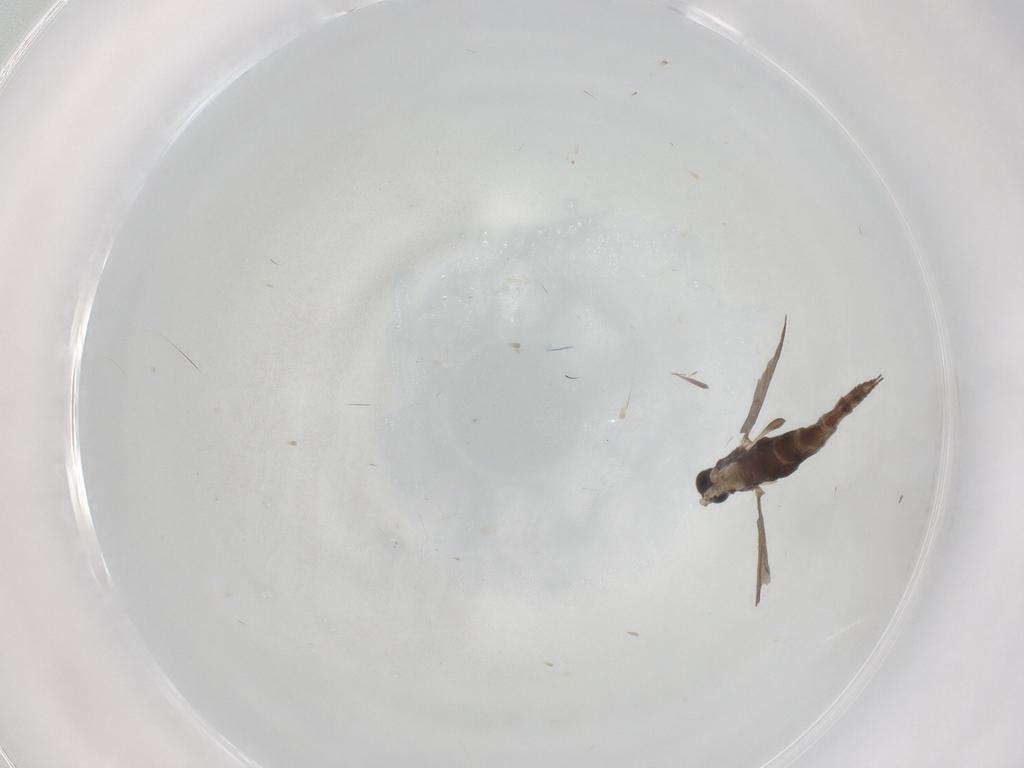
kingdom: Animalia
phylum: Arthropoda
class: Insecta
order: Diptera
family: Sciaridae
